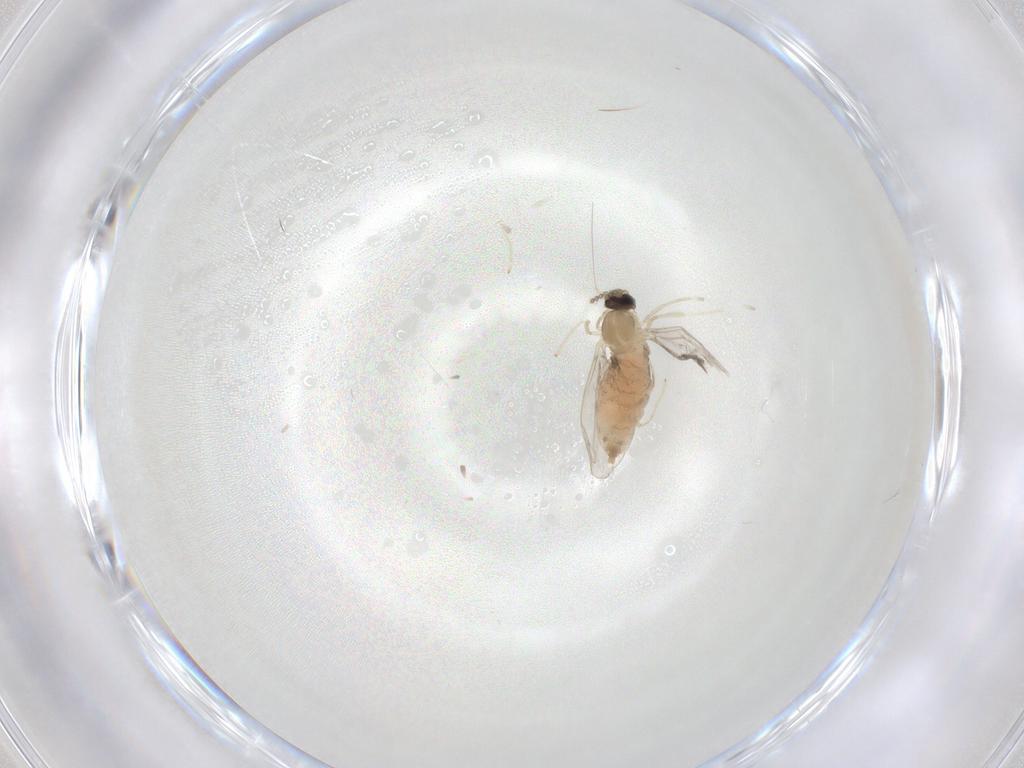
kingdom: Animalia
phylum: Arthropoda
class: Insecta
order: Diptera
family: Cecidomyiidae
